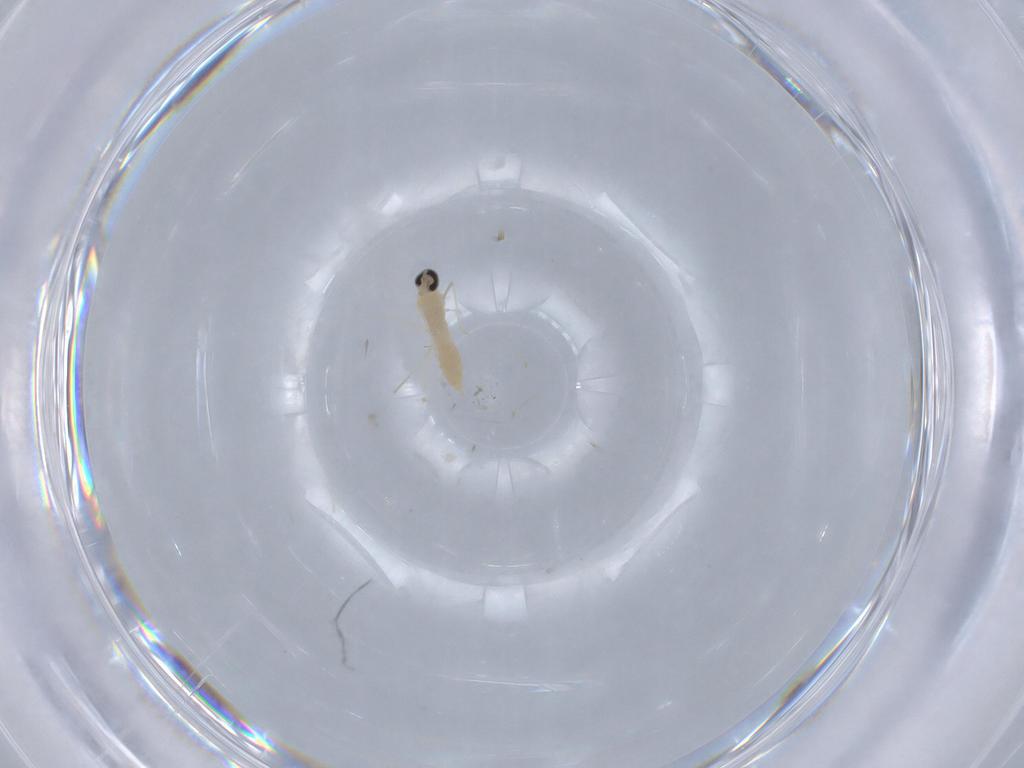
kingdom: Animalia
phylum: Arthropoda
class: Insecta
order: Diptera
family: Cecidomyiidae
